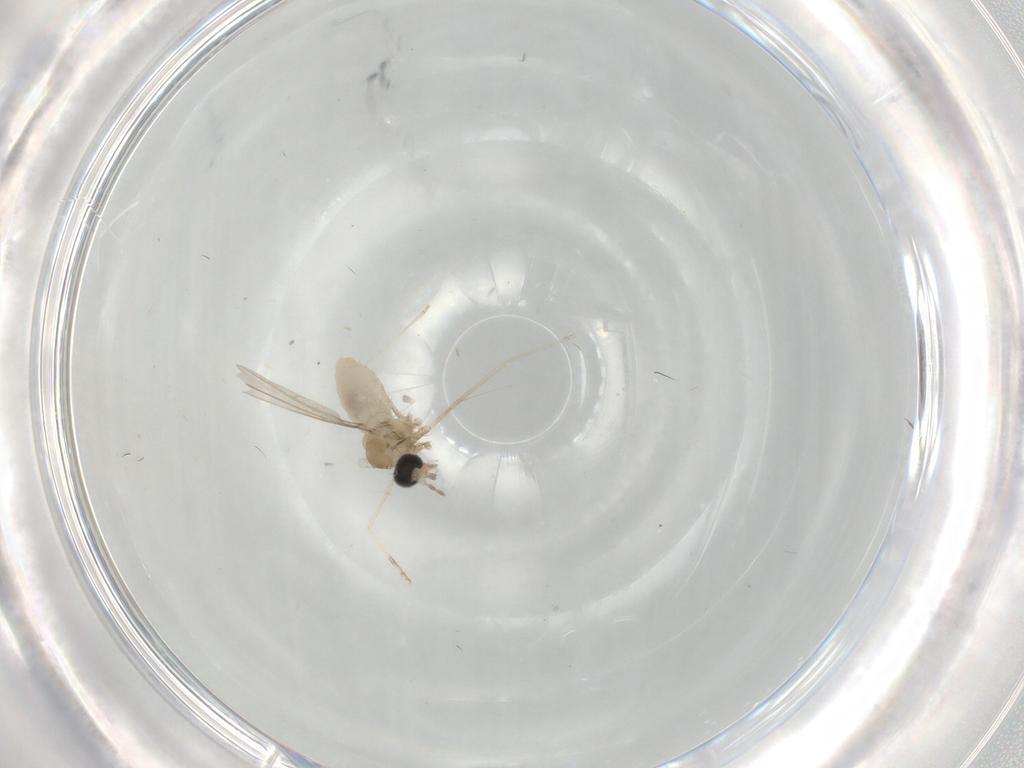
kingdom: Animalia
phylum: Arthropoda
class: Insecta
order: Diptera
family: Cecidomyiidae
